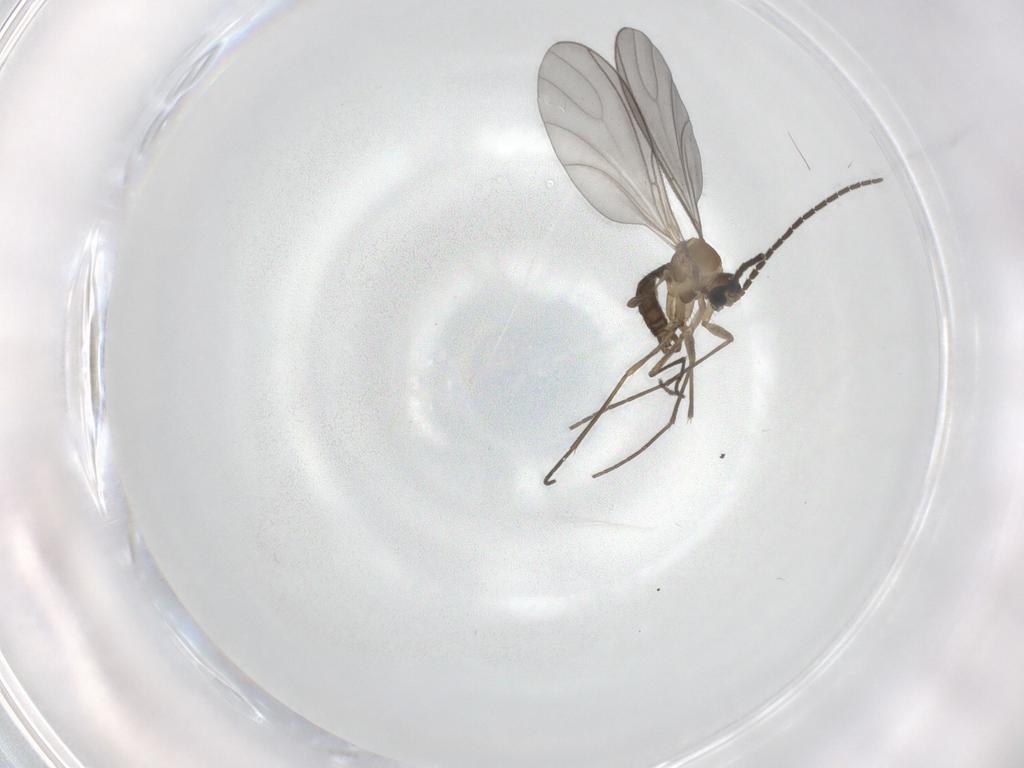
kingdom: Animalia
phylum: Arthropoda
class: Insecta
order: Diptera
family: Sciaridae
